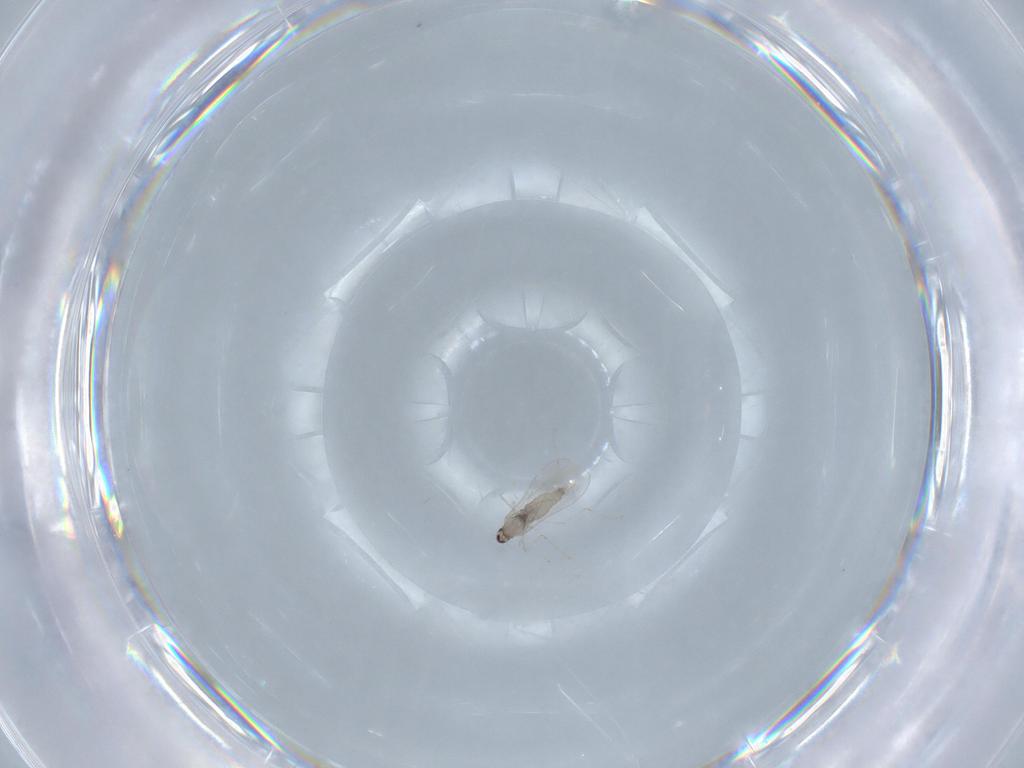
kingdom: Animalia
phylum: Arthropoda
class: Insecta
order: Diptera
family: Cecidomyiidae
